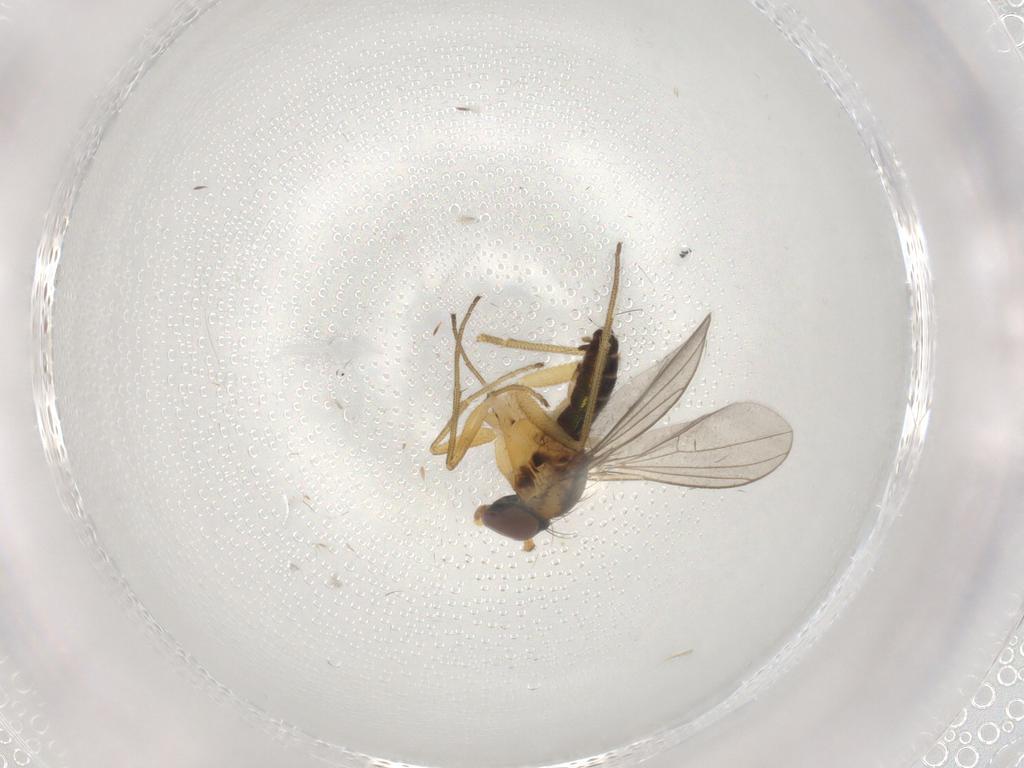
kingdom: Animalia
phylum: Arthropoda
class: Insecta
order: Diptera
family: Dolichopodidae
